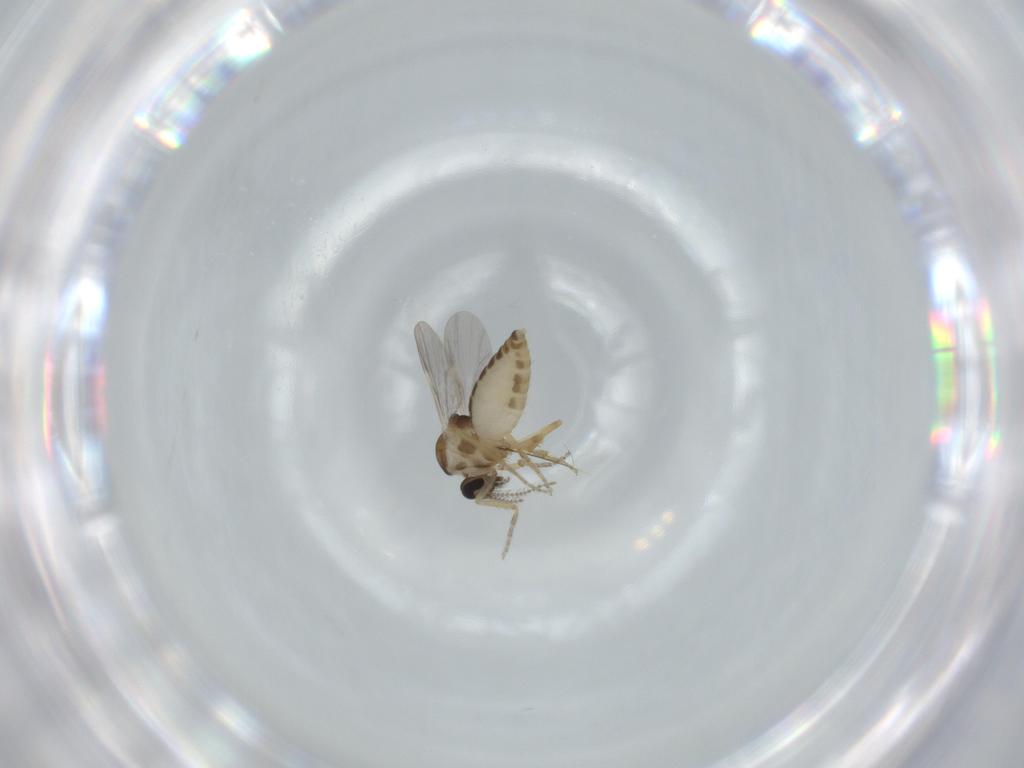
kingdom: Animalia
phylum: Arthropoda
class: Insecta
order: Diptera
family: Ceratopogonidae
